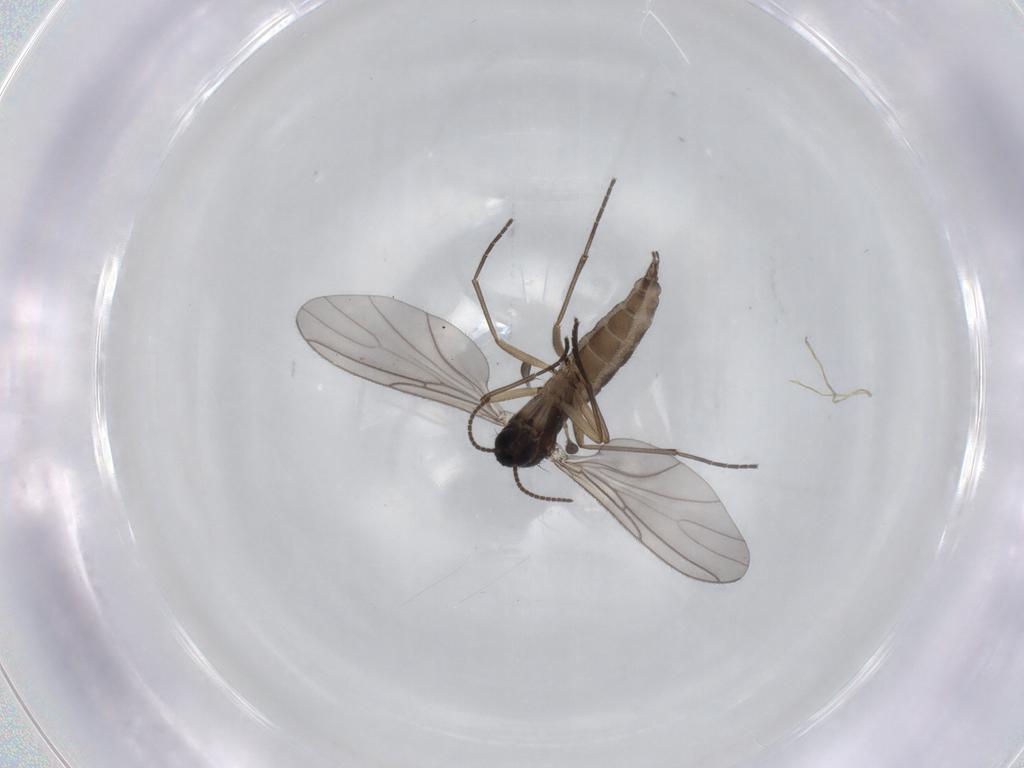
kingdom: Animalia
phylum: Arthropoda
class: Insecta
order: Diptera
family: Sciaridae
